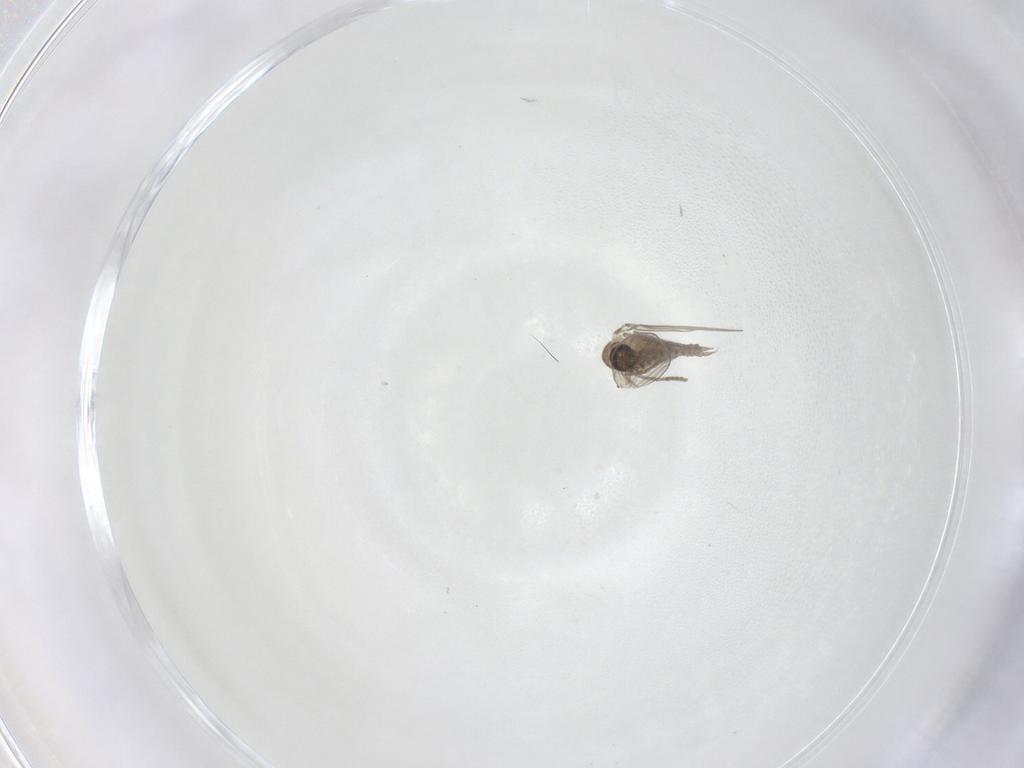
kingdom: Animalia
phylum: Arthropoda
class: Insecta
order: Diptera
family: Psychodidae
